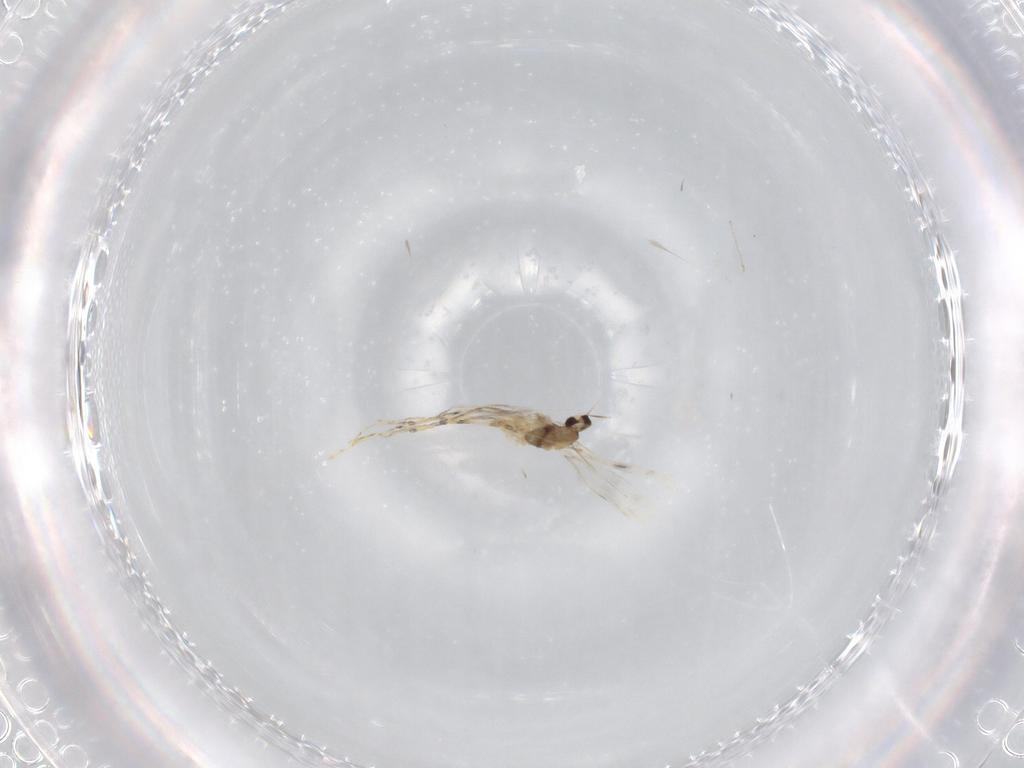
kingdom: Animalia
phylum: Arthropoda
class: Insecta
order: Diptera
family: Cecidomyiidae
